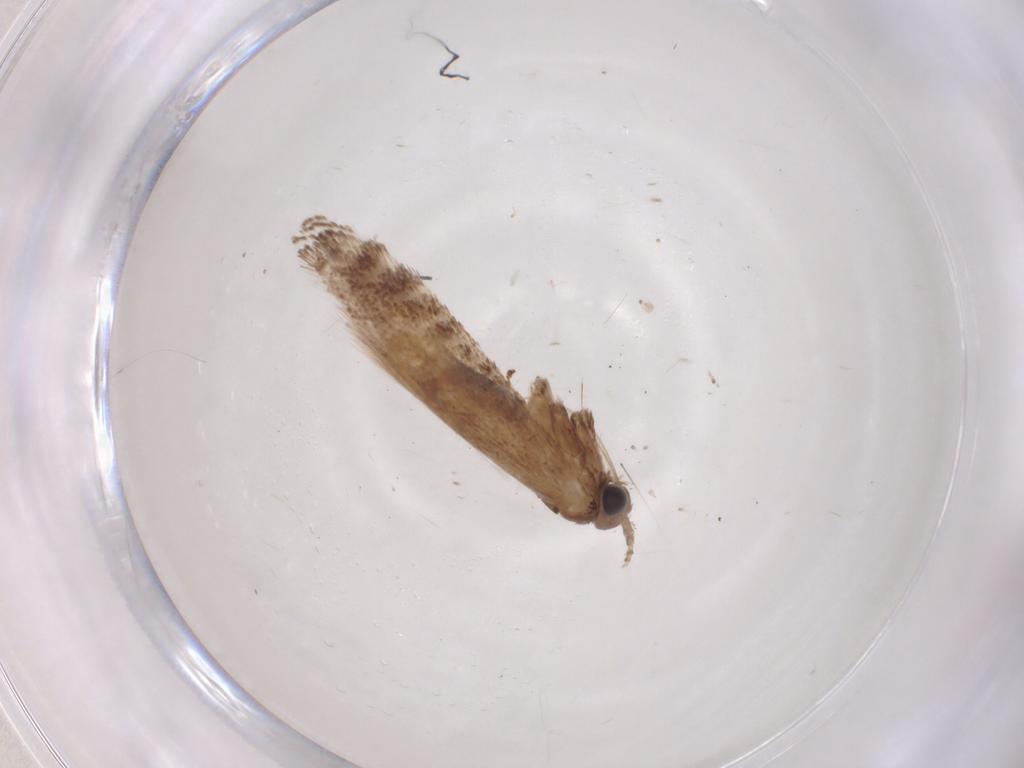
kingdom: Animalia
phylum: Arthropoda
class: Insecta
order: Lepidoptera
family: Gracillariidae
